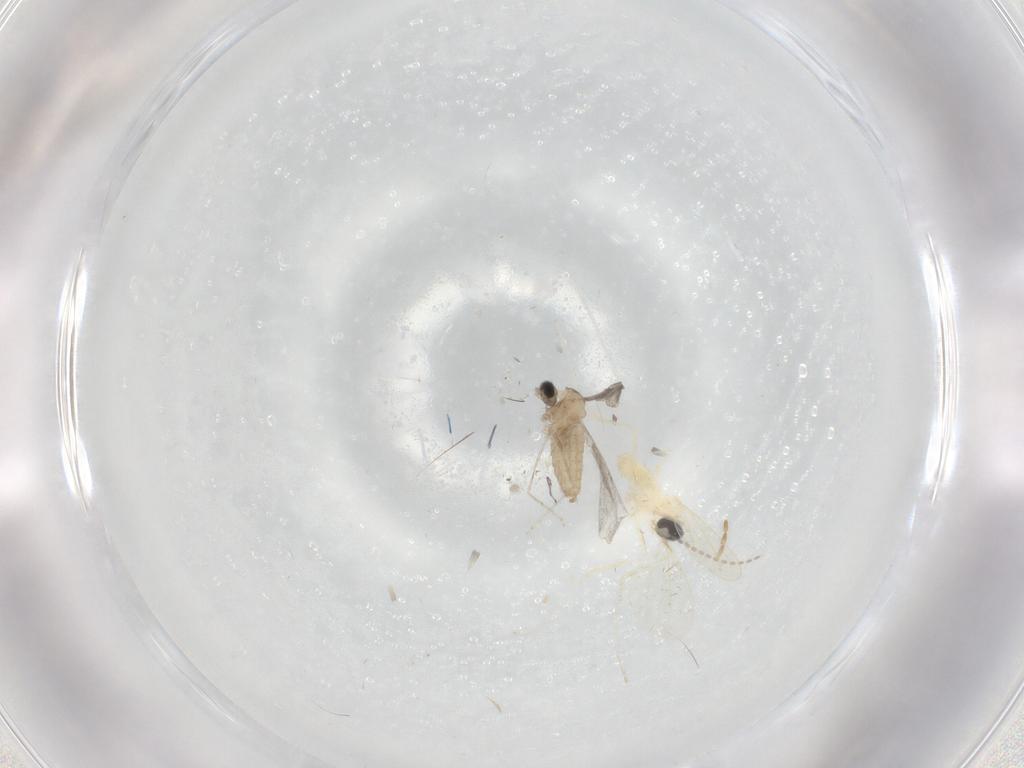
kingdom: Animalia
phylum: Arthropoda
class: Insecta
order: Diptera
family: Cecidomyiidae
